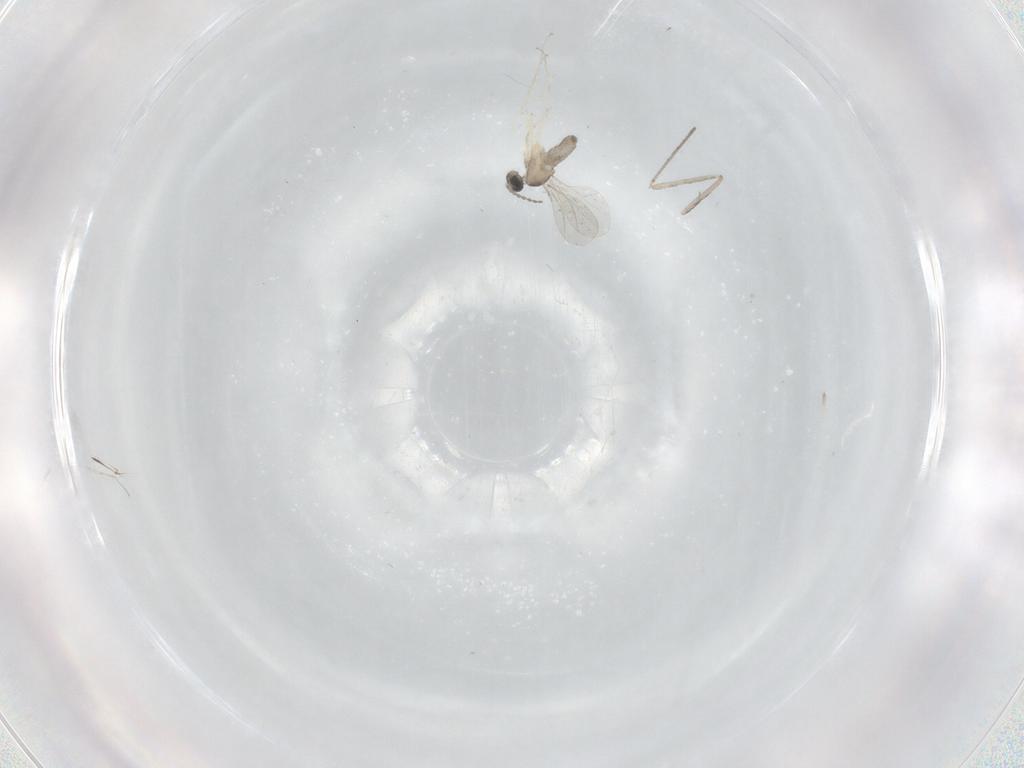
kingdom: Animalia
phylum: Arthropoda
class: Insecta
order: Diptera
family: Cecidomyiidae
